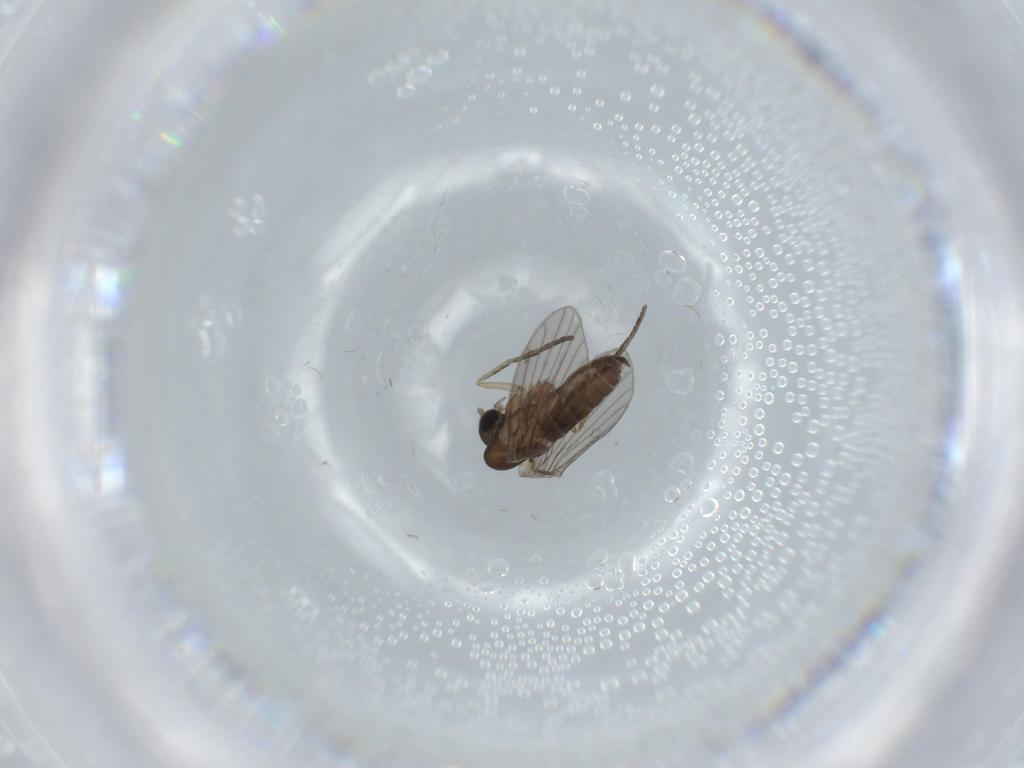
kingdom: Animalia
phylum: Arthropoda
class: Insecta
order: Diptera
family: Psychodidae
